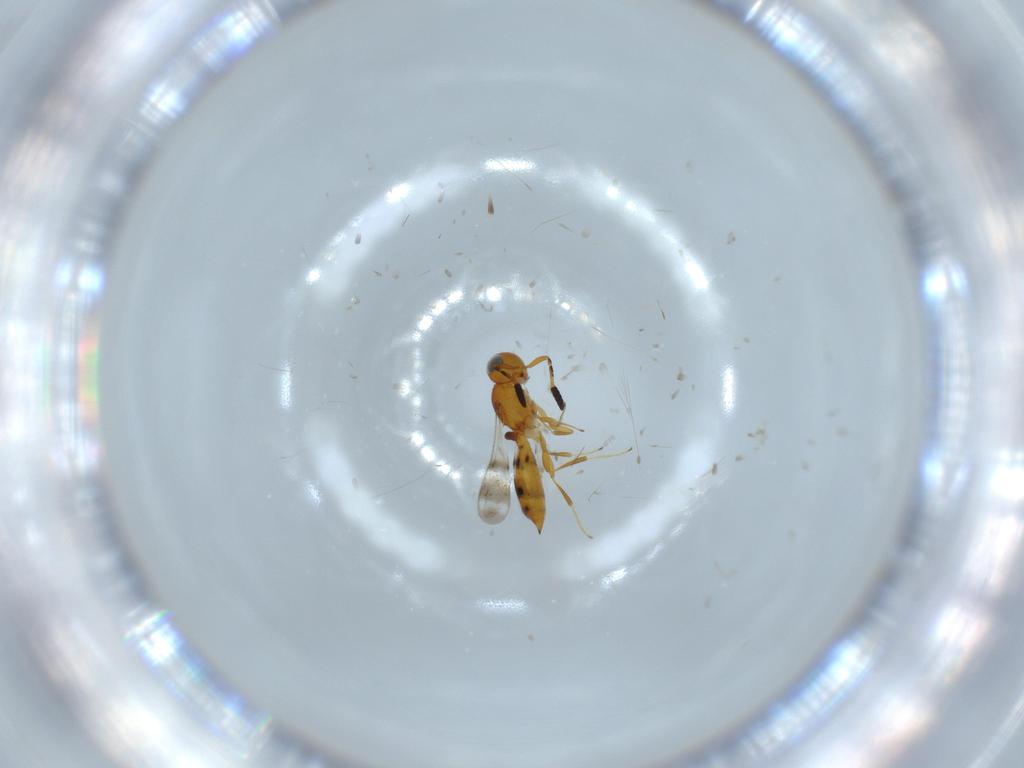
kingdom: Animalia
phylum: Arthropoda
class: Insecta
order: Hymenoptera
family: Scelionidae
